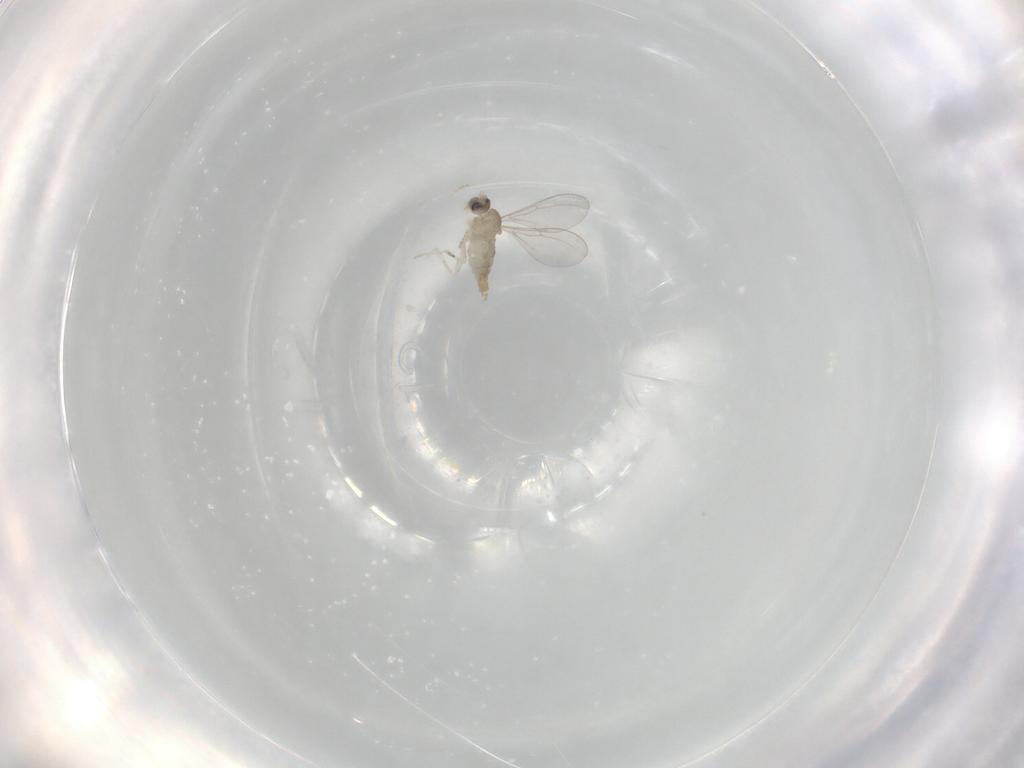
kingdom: Animalia
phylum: Arthropoda
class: Insecta
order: Diptera
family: Cecidomyiidae
